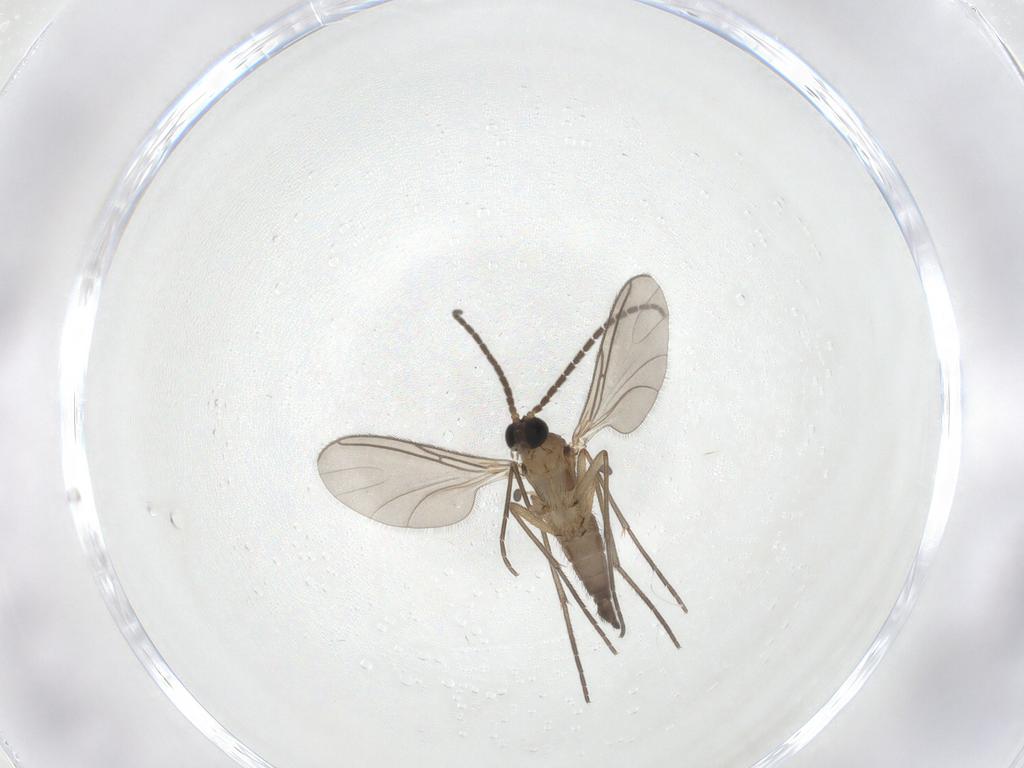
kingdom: Animalia
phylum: Arthropoda
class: Insecta
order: Diptera
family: Sciaridae
